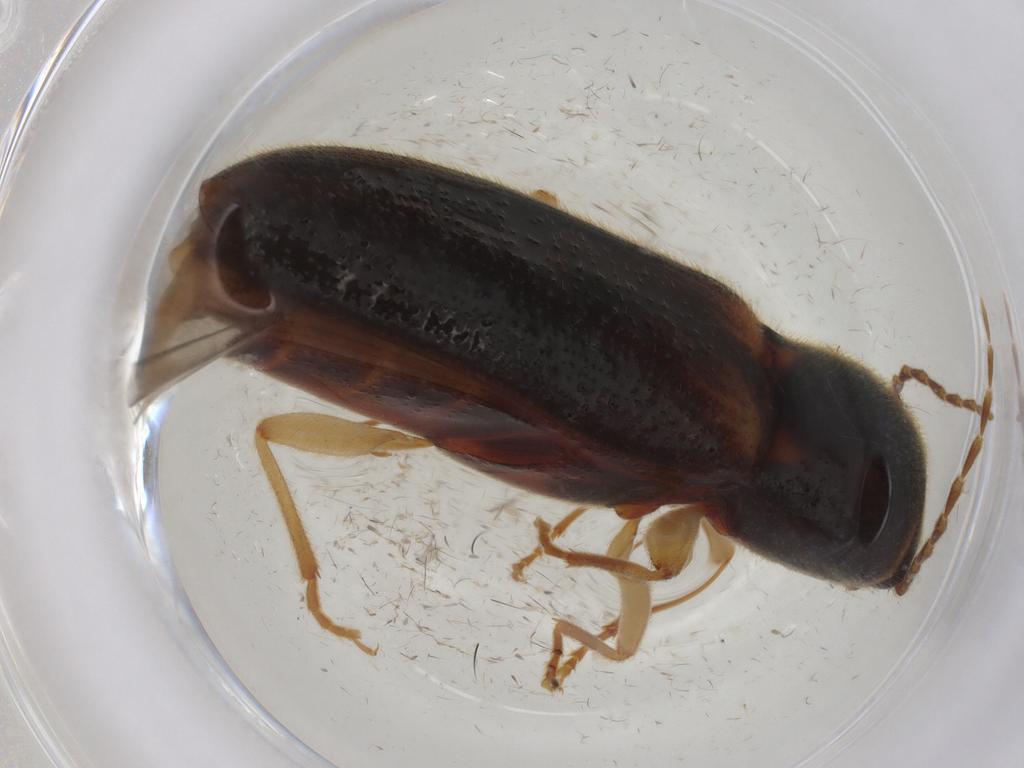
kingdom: Animalia
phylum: Arthropoda
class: Insecta
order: Coleoptera
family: Elateridae
